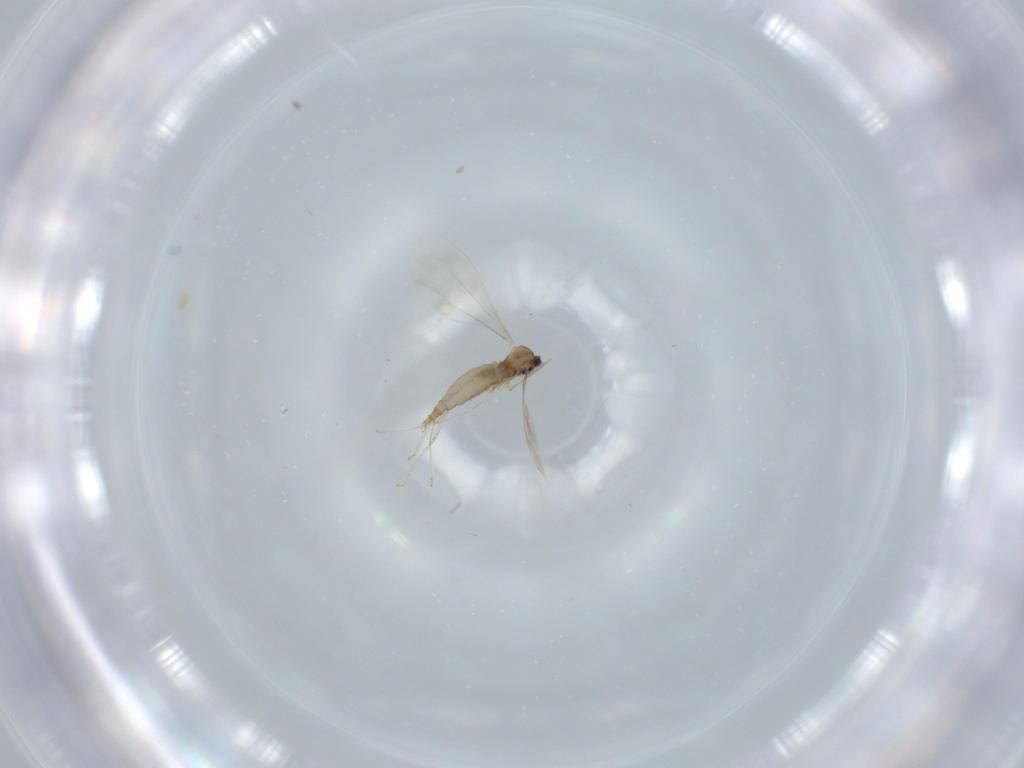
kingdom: Animalia
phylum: Arthropoda
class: Insecta
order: Diptera
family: Cecidomyiidae
